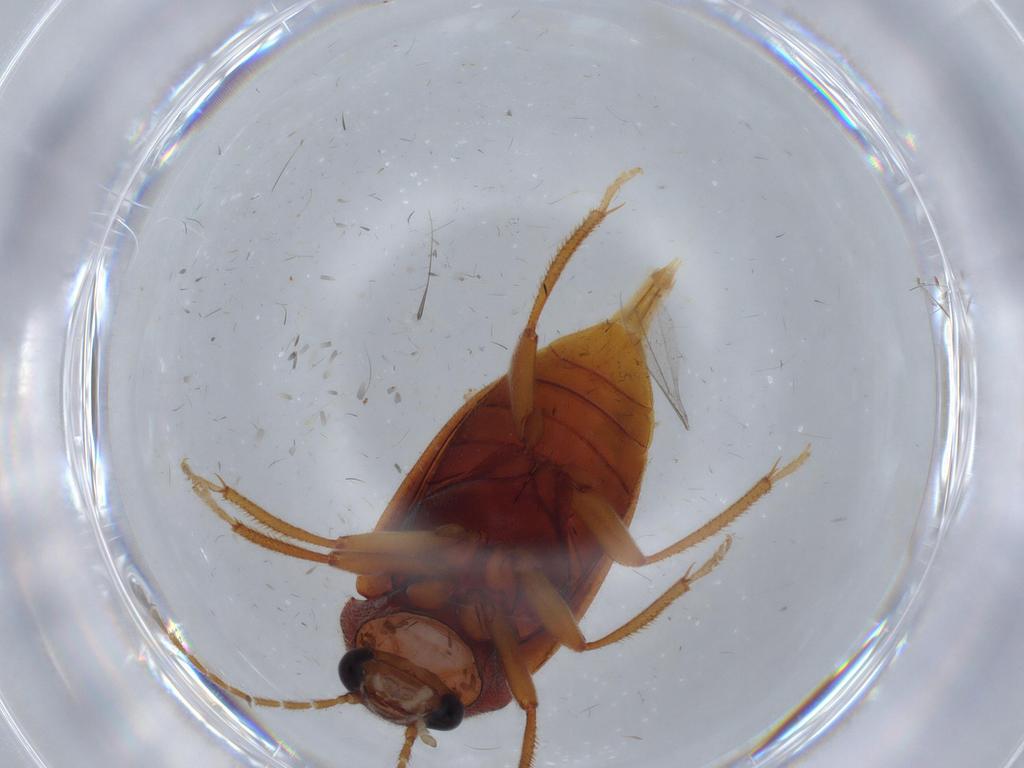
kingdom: Animalia
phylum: Arthropoda
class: Insecta
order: Coleoptera
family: Ptilodactylidae
